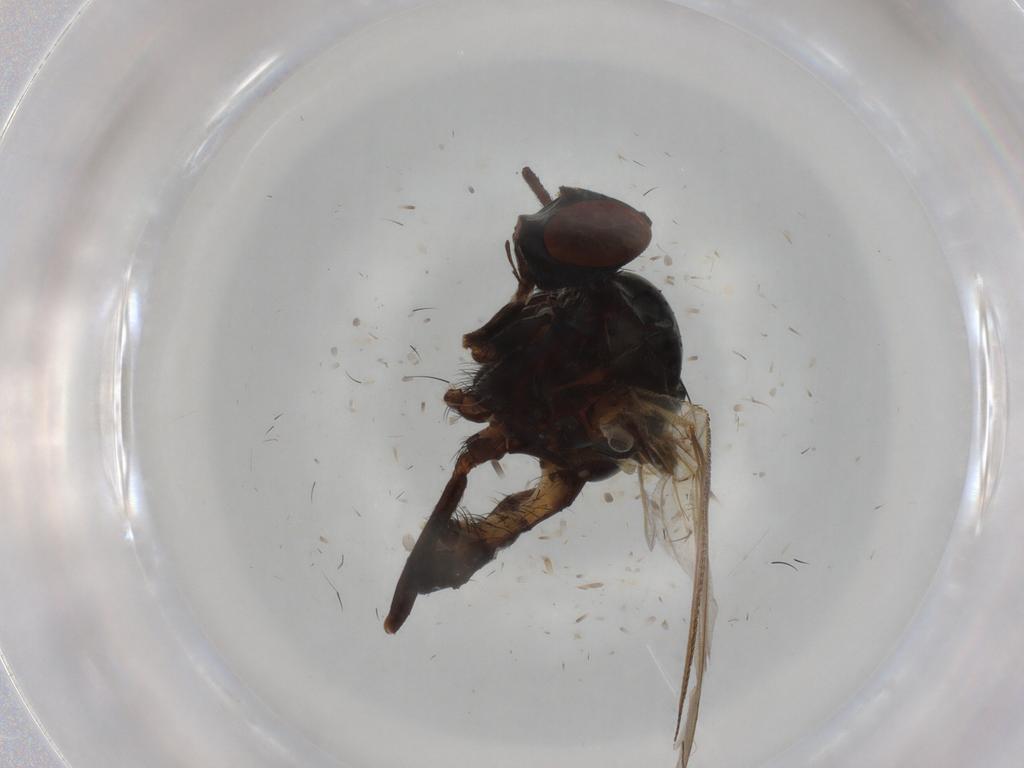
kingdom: Animalia
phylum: Arthropoda
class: Insecta
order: Diptera
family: Anthomyiidae
